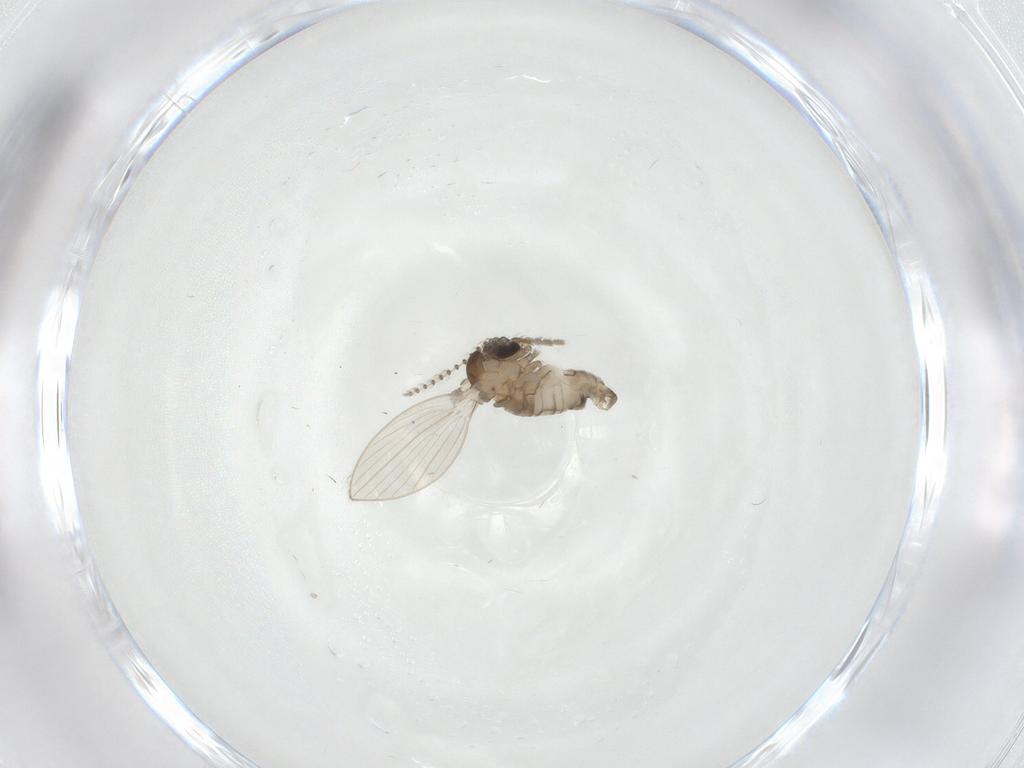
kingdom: Animalia
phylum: Arthropoda
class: Insecta
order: Diptera
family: Psychodidae
